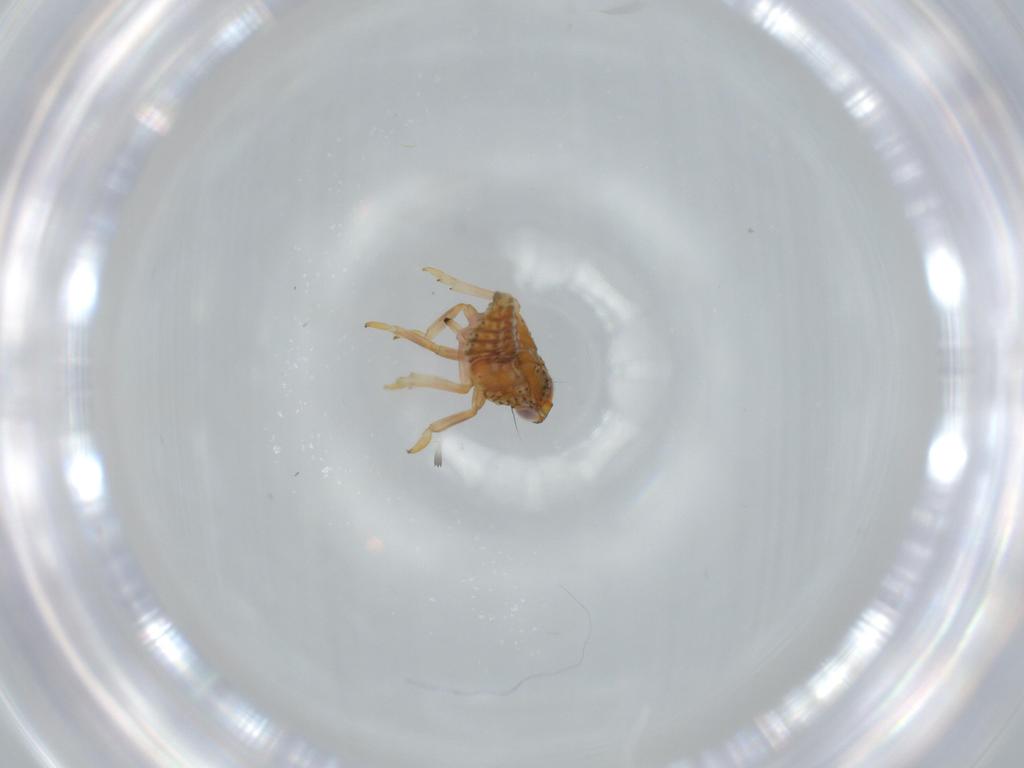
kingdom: Animalia
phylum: Arthropoda
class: Insecta
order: Hemiptera
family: Issidae
